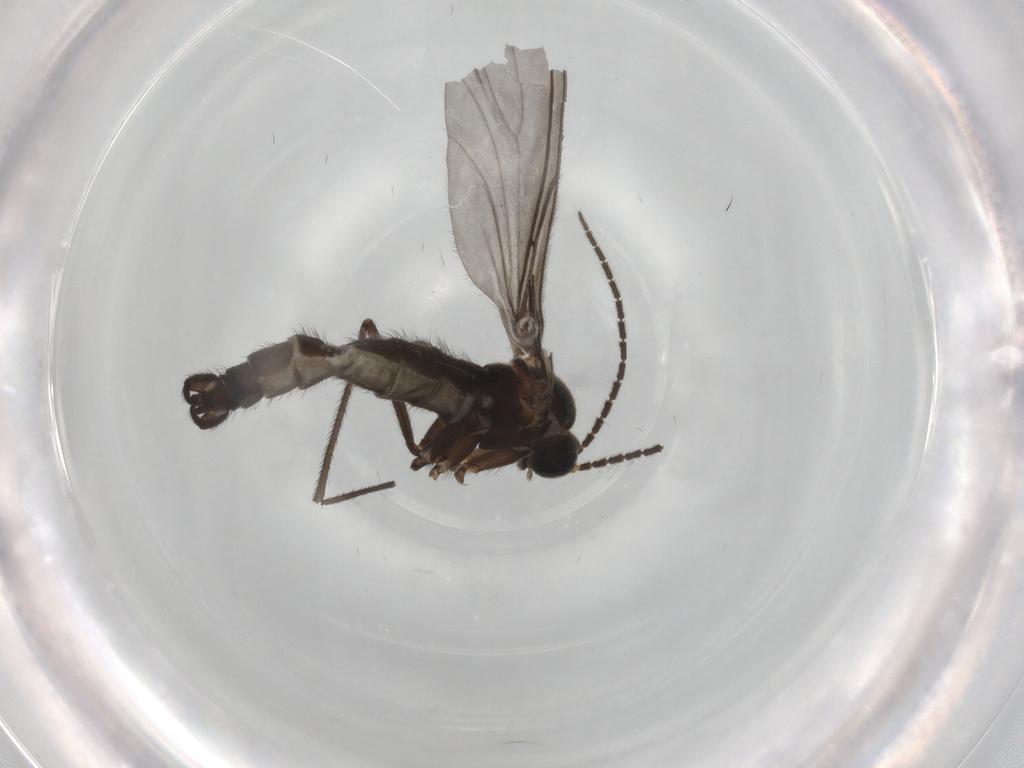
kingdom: Animalia
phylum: Arthropoda
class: Insecta
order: Diptera
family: Sciaridae
